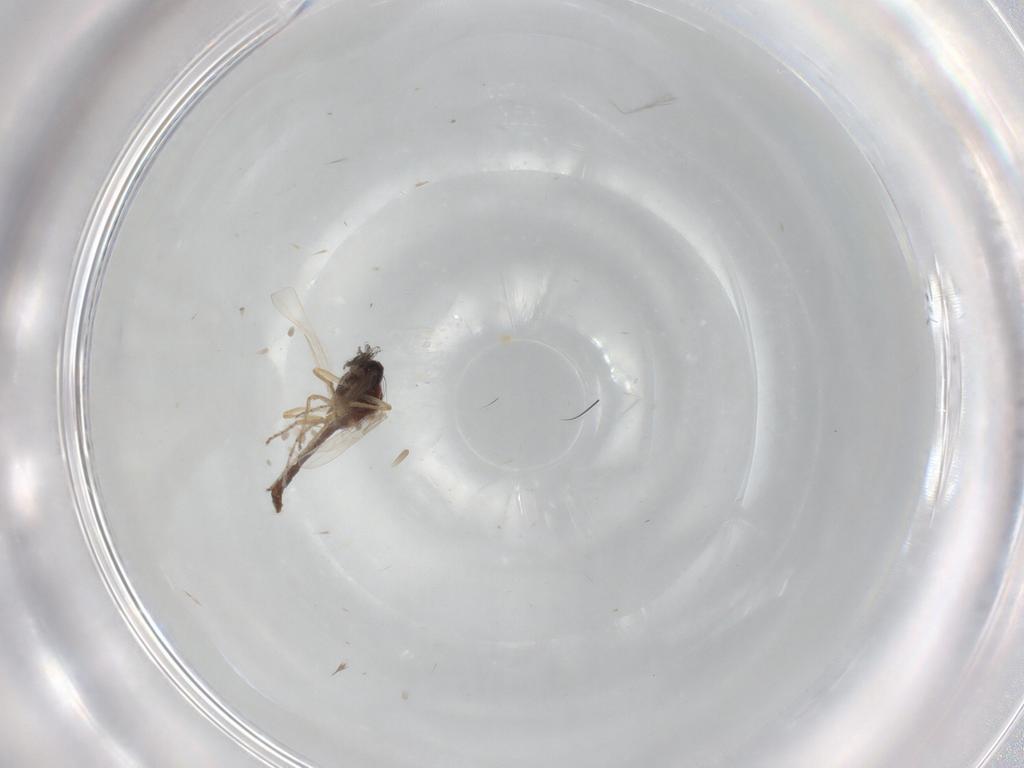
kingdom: Animalia
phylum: Arthropoda
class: Insecta
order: Diptera
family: Ceratopogonidae
